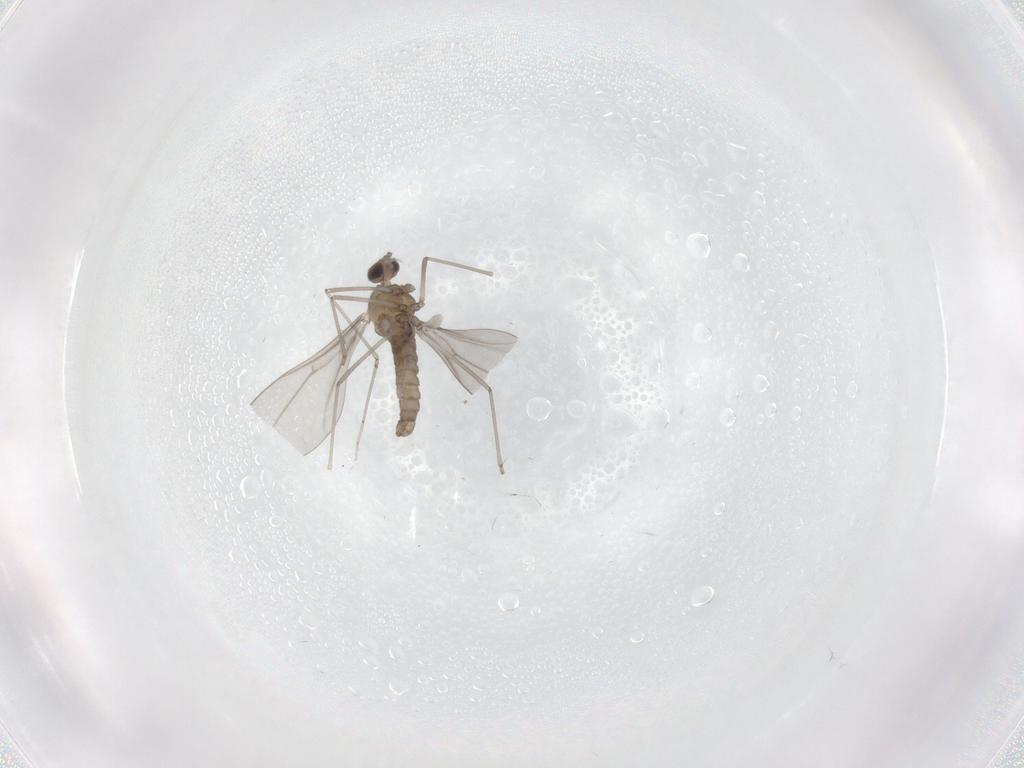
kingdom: Animalia
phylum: Arthropoda
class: Insecta
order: Diptera
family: Cecidomyiidae
